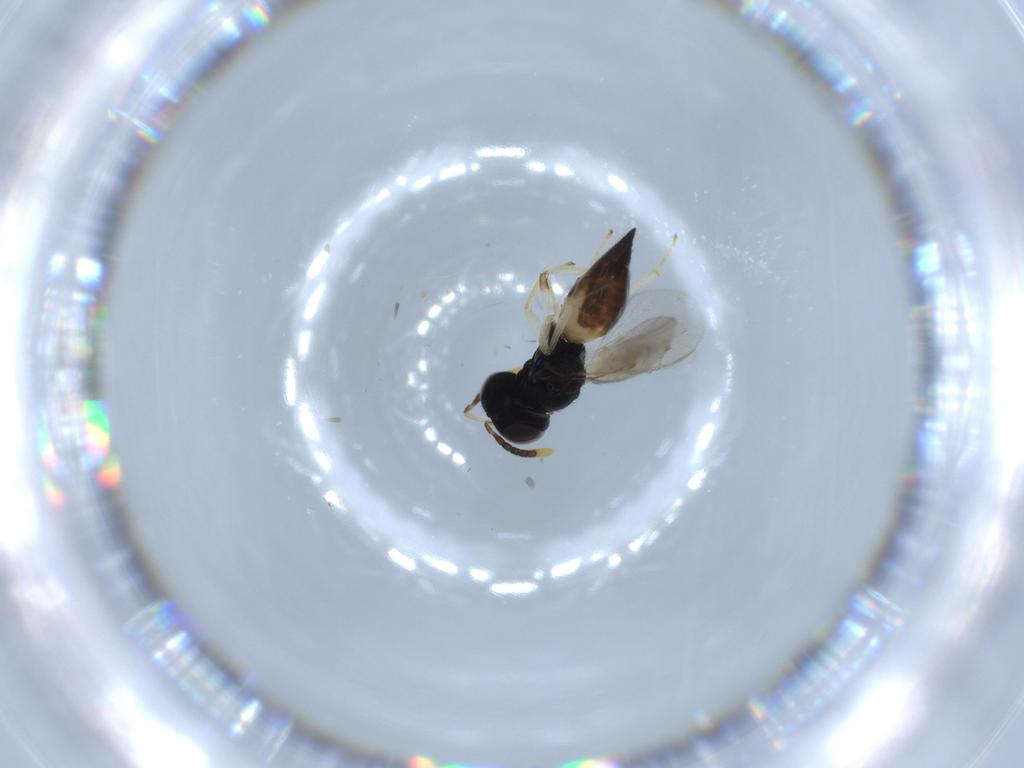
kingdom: Animalia
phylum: Arthropoda
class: Insecta
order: Hymenoptera
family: Pteromalidae
